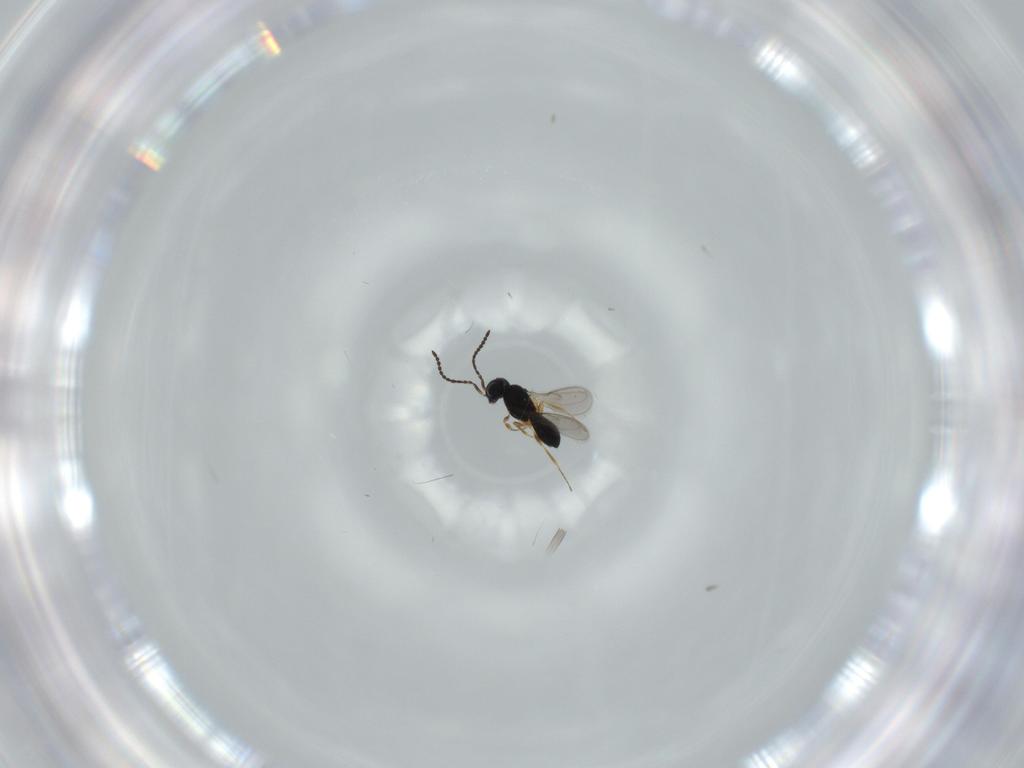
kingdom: Animalia
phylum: Arthropoda
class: Insecta
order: Hymenoptera
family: Scelionidae
